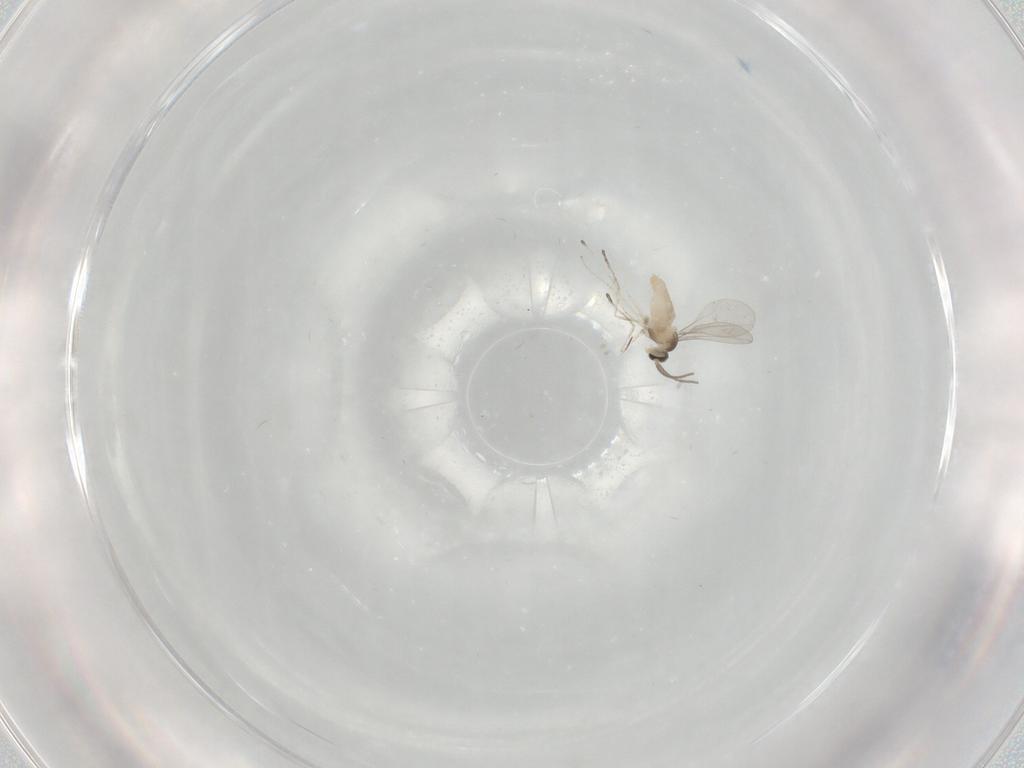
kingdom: Animalia
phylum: Arthropoda
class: Insecta
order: Diptera
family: Cecidomyiidae
